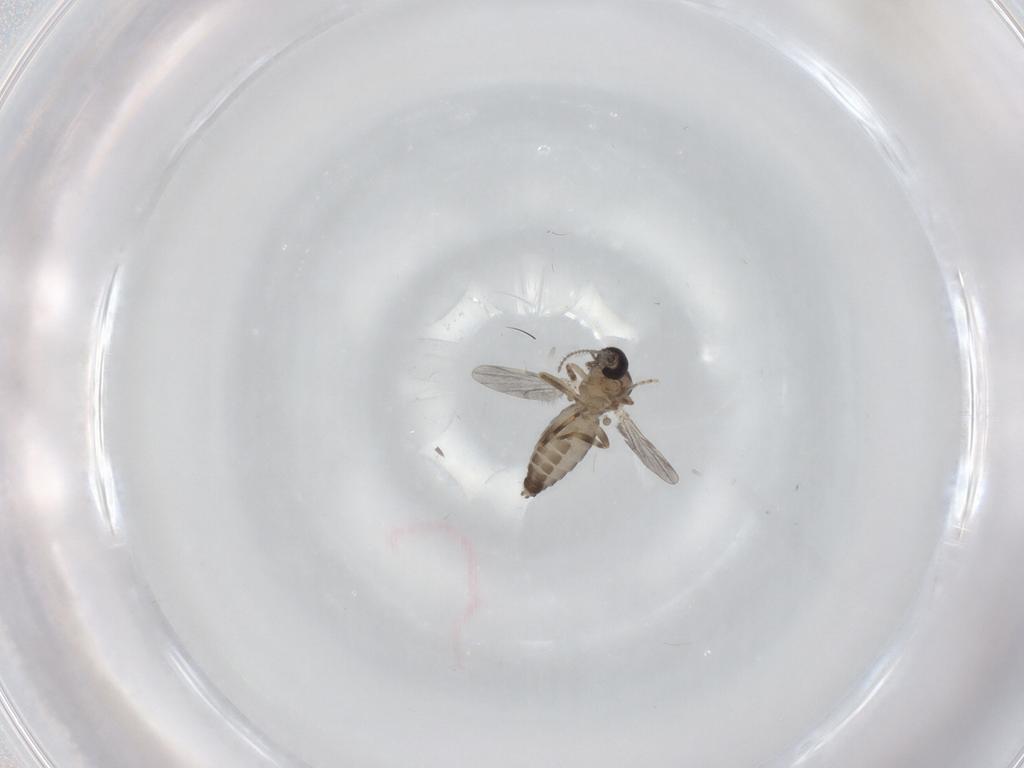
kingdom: Animalia
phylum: Arthropoda
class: Insecta
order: Diptera
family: Ceratopogonidae
